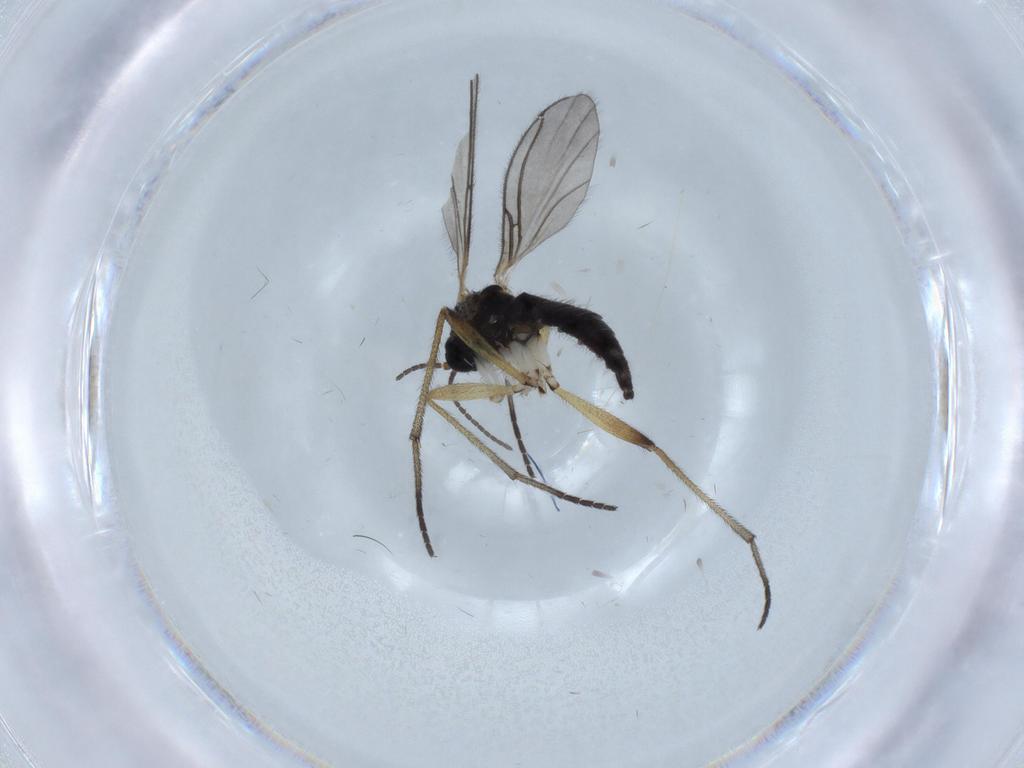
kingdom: Animalia
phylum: Arthropoda
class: Insecta
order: Diptera
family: Sciaridae
